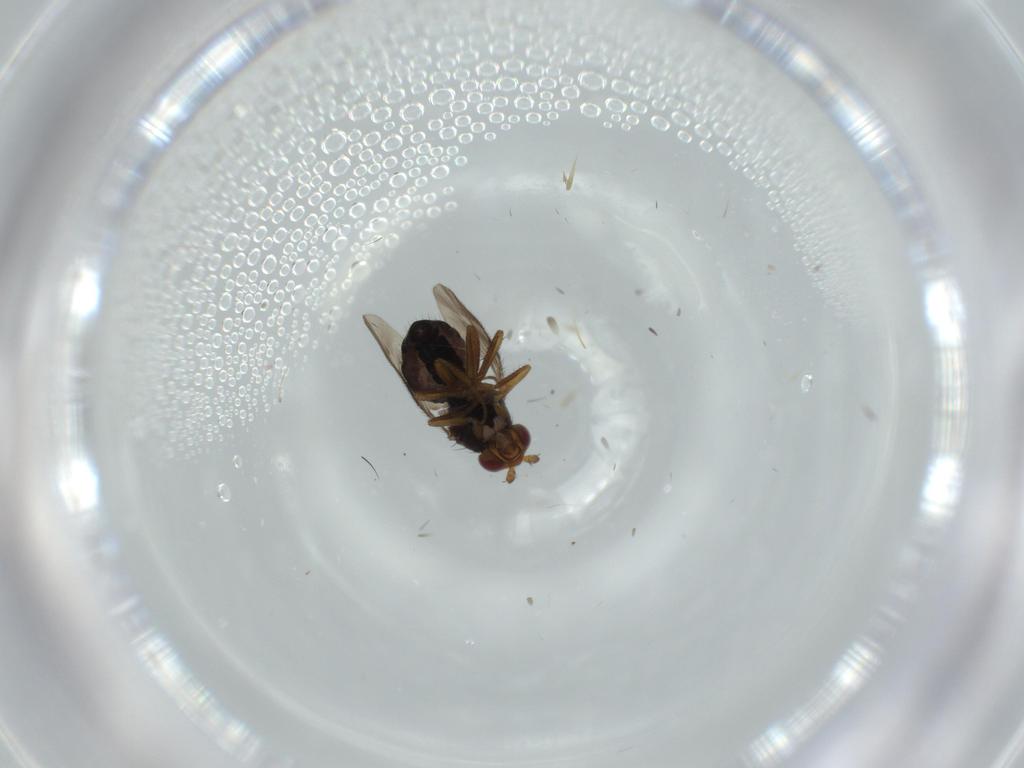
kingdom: Animalia
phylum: Arthropoda
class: Insecta
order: Diptera
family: Sphaeroceridae
